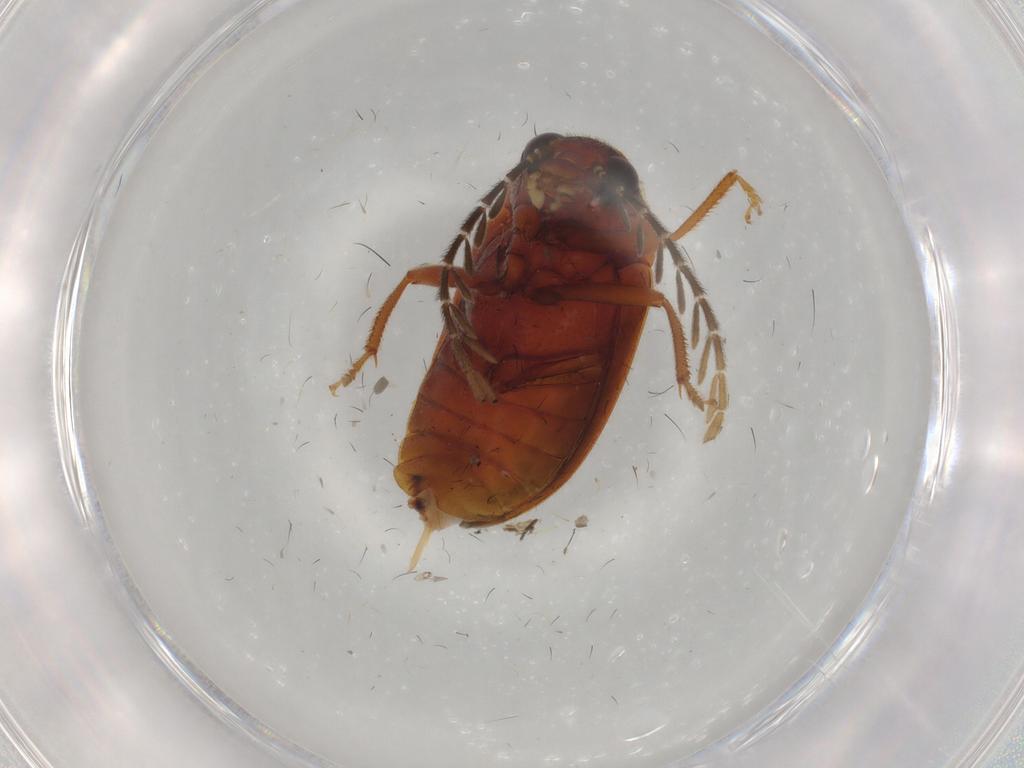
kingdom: Animalia
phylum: Arthropoda
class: Insecta
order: Coleoptera
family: Ptilodactylidae
